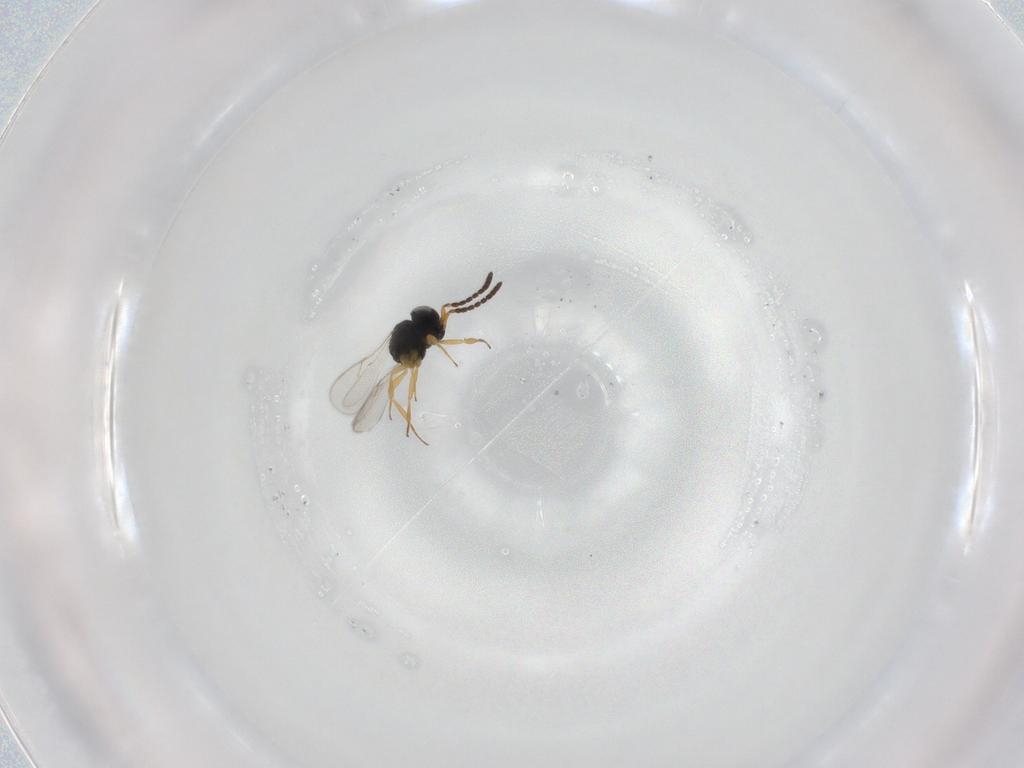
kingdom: Animalia
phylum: Arthropoda
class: Insecta
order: Hymenoptera
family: Scelionidae
